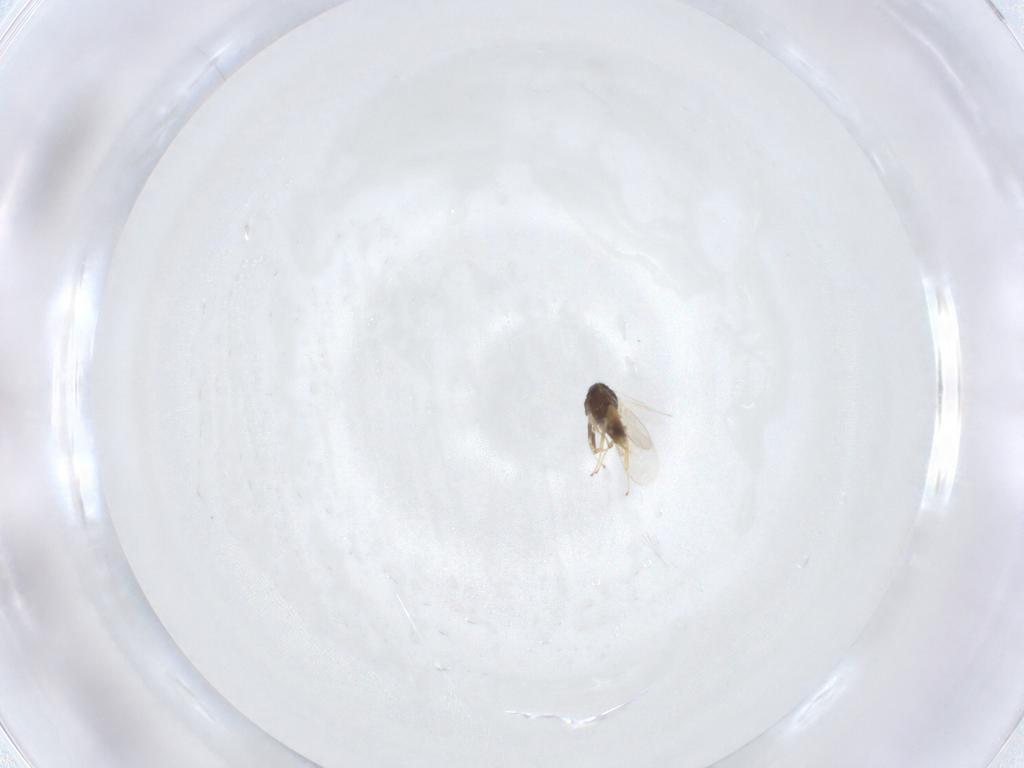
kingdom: Animalia
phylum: Arthropoda
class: Insecta
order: Hymenoptera
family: Aphelinidae
